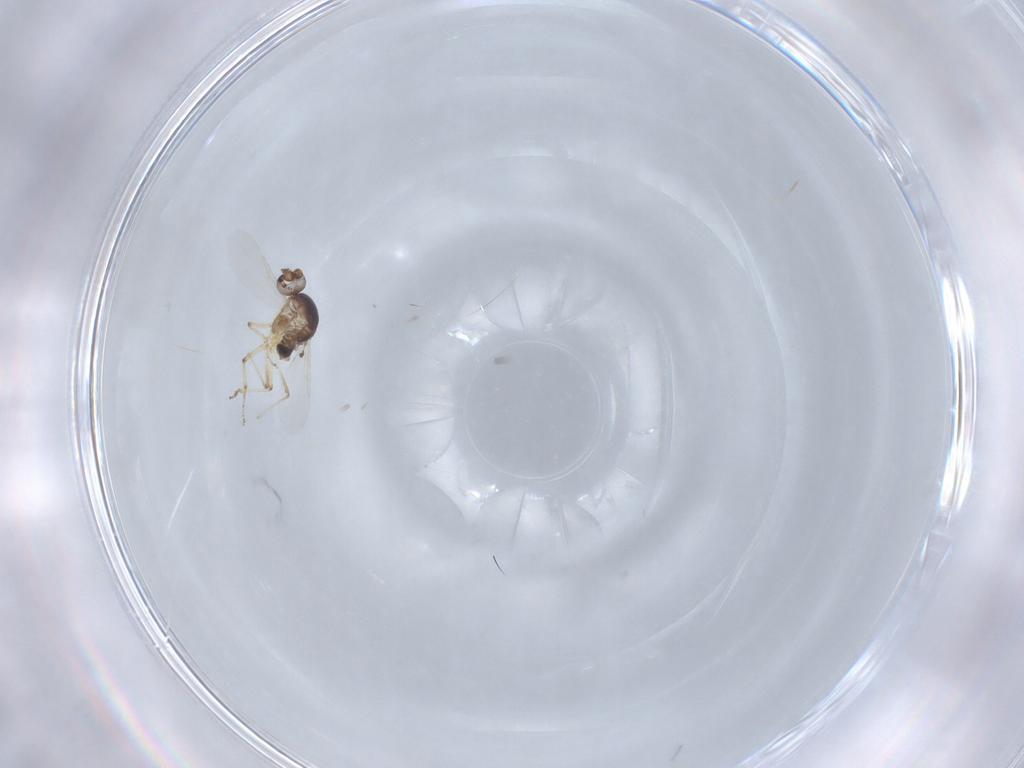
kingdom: Animalia
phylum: Arthropoda
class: Insecta
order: Diptera
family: Ceratopogonidae
